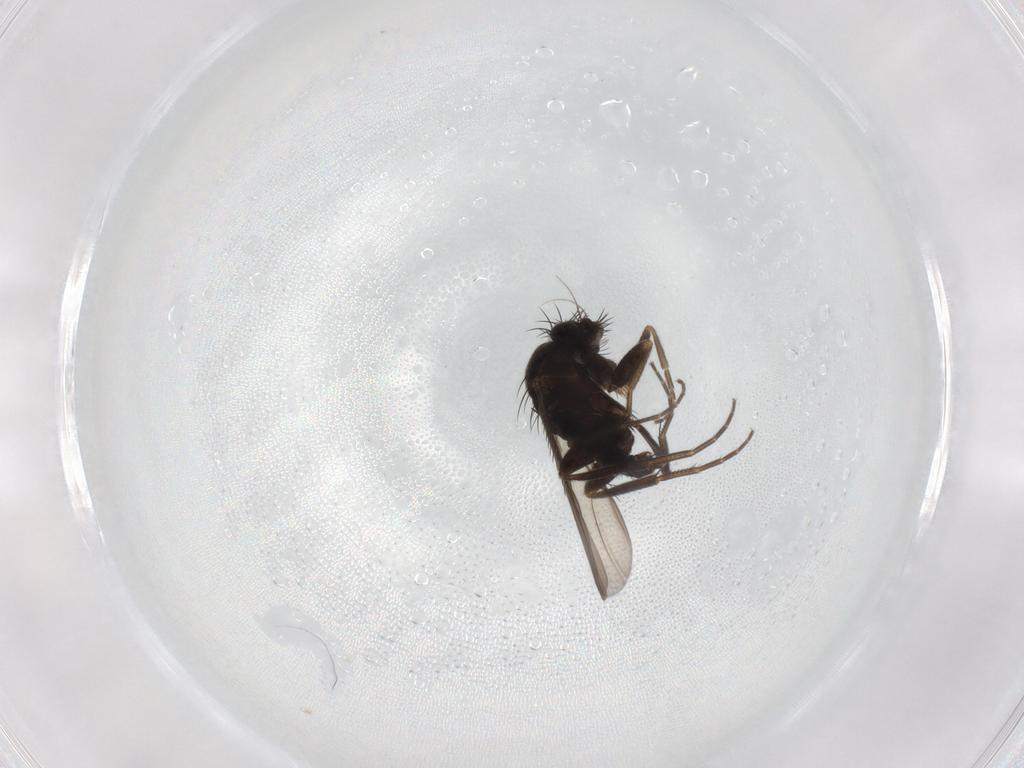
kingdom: Animalia
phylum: Arthropoda
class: Insecta
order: Diptera
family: Phoridae
